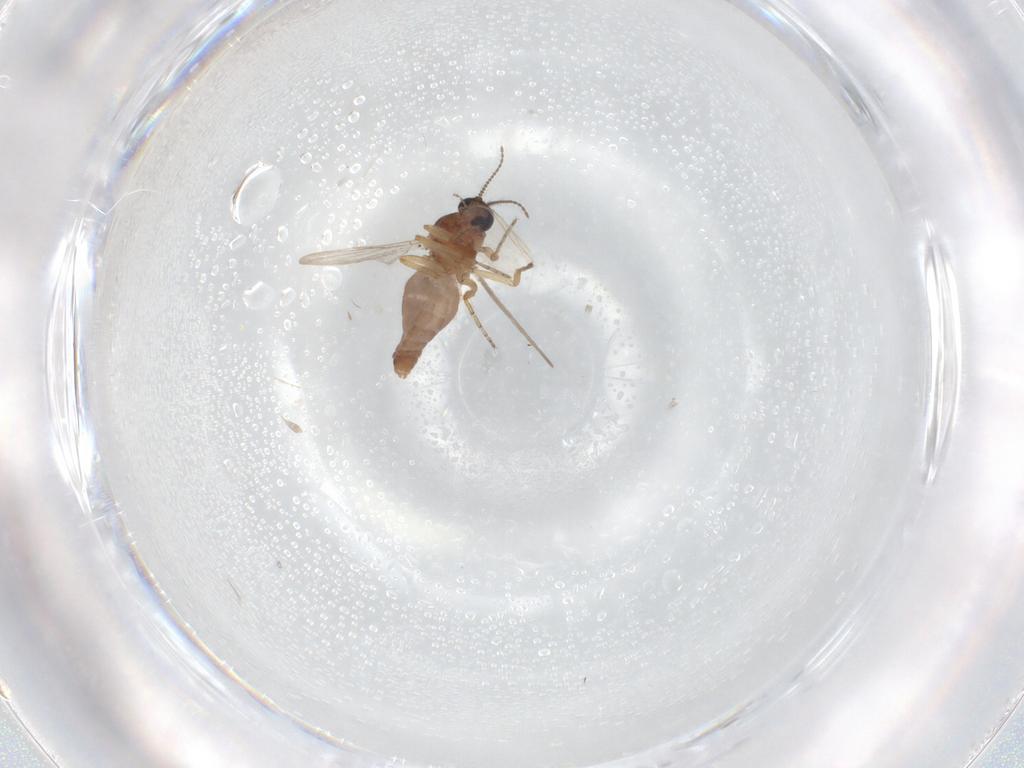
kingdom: Animalia
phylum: Arthropoda
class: Insecta
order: Diptera
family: Ceratopogonidae
